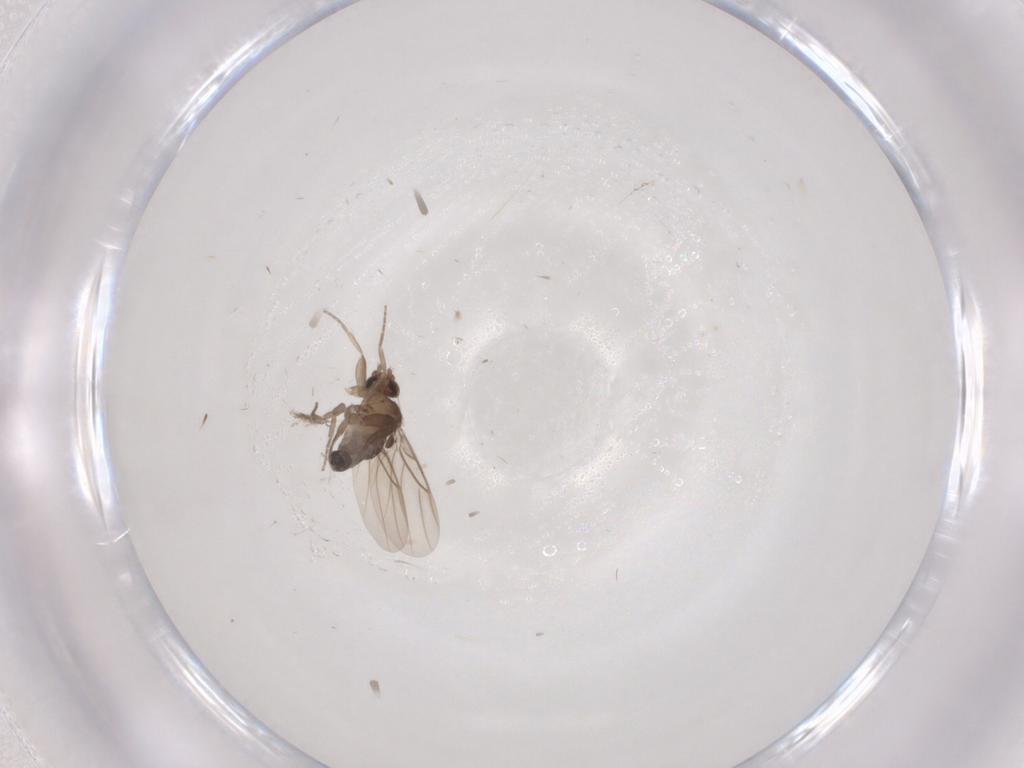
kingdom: Animalia
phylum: Arthropoda
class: Insecta
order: Diptera
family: Phoridae
